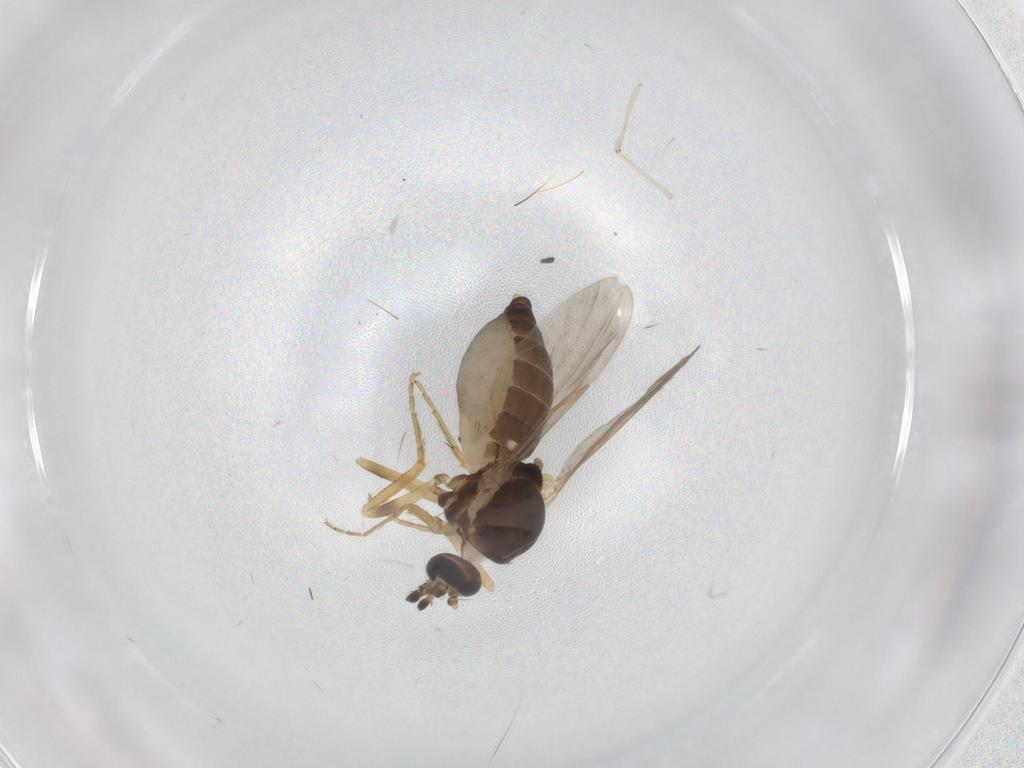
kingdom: Animalia
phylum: Arthropoda
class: Insecta
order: Diptera
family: Ceratopogonidae
